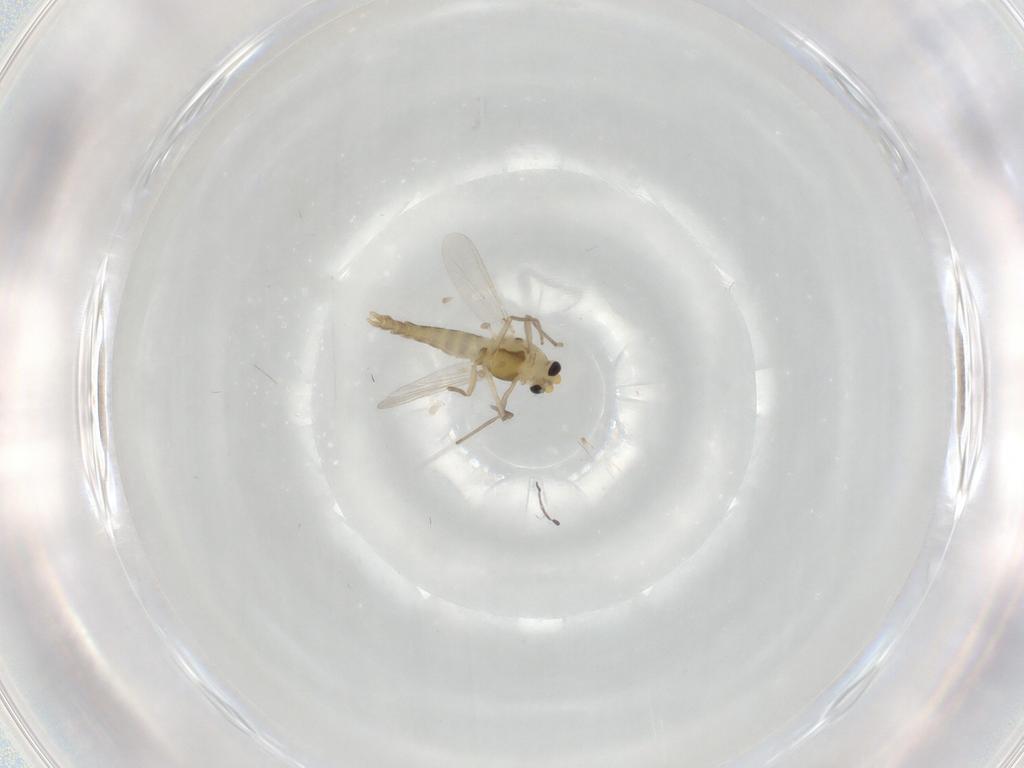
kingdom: Animalia
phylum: Arthropoda
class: Insecta
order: Diptera
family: Chironomidae
